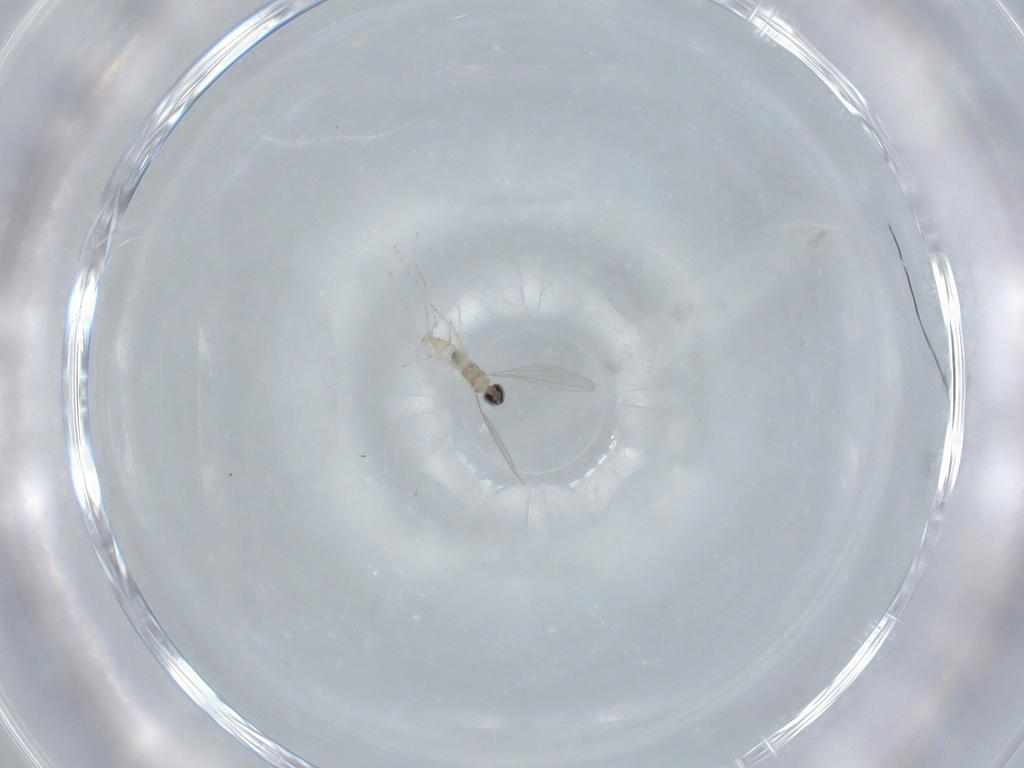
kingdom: Animalia
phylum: Arthropoda
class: Insecta
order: Diptera
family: Cecidomyiidae
